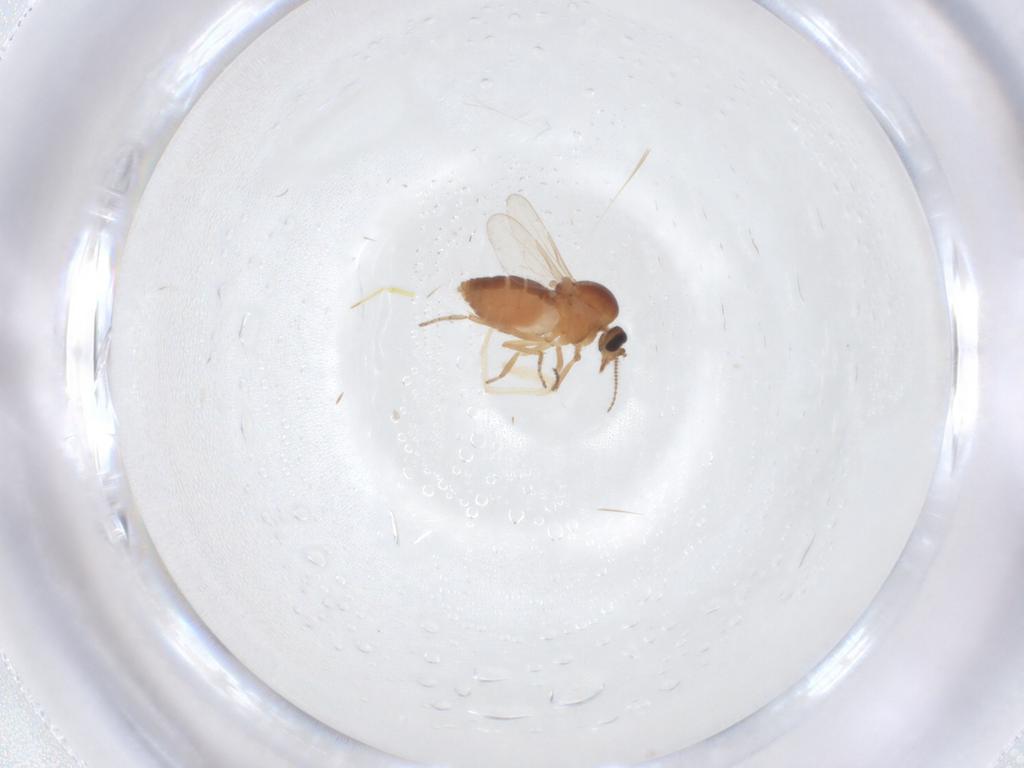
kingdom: Animalia
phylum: Arthropoda
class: Insecta
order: Diptera
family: Ceratopogonidae
